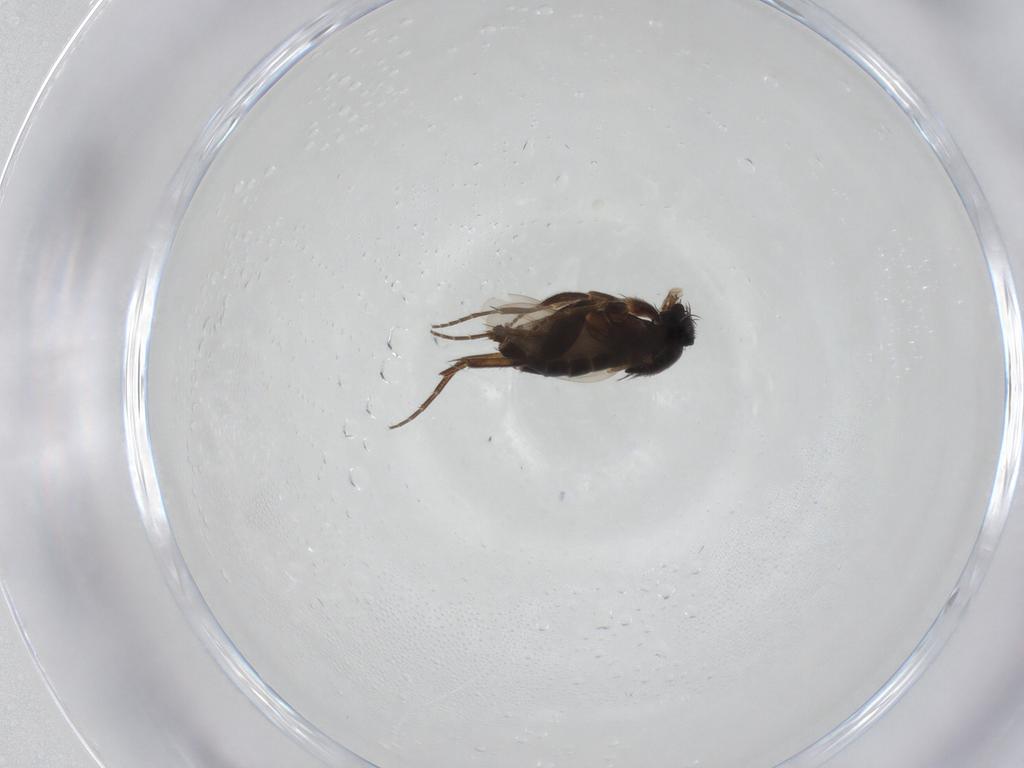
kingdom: Animalia
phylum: Arthropoda
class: Insecta
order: Diptera
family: Phoridae
